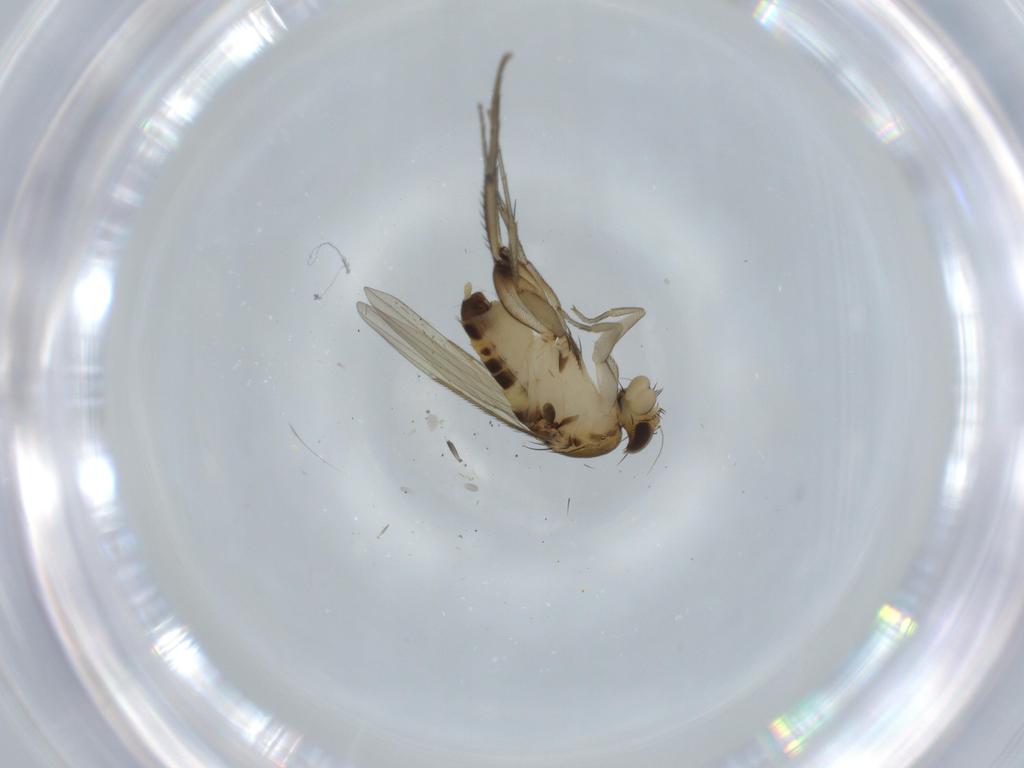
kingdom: Animalia
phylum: Arthropoda
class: Insecta
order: Diptera
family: Phoridae
